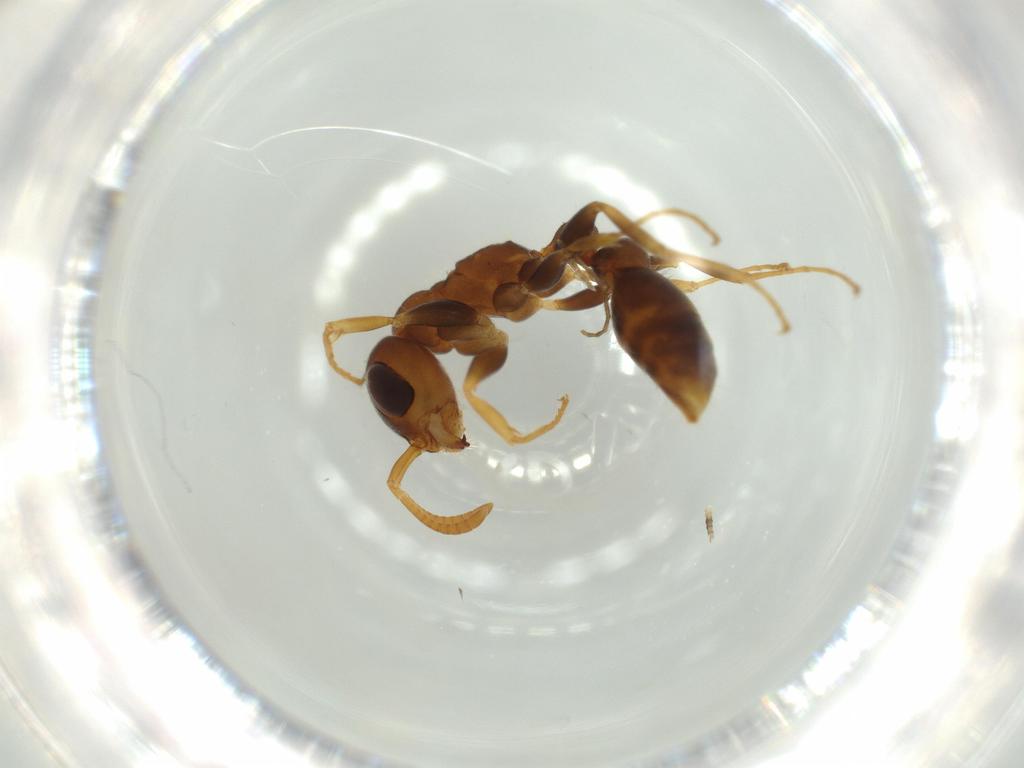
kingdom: Animalia
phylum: Arthropoda
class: Insecta
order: Hymenoptera
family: Formicidae
